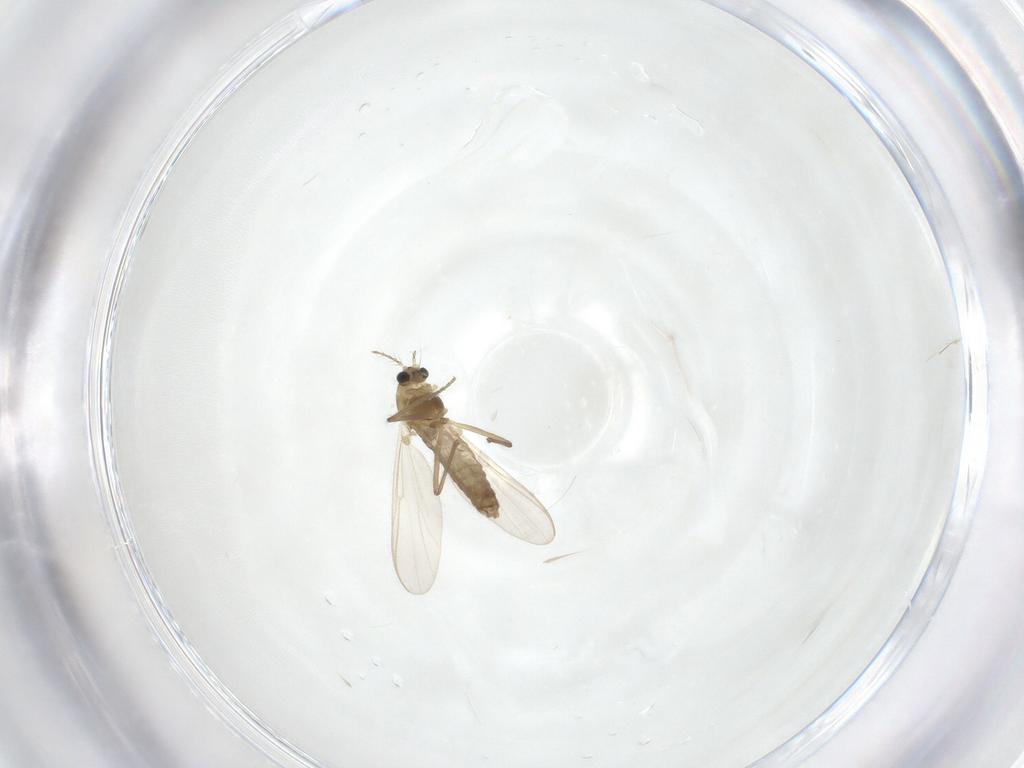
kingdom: Animalia
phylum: Arthropoda
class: Insecta
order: Diptera
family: Chironomidae
